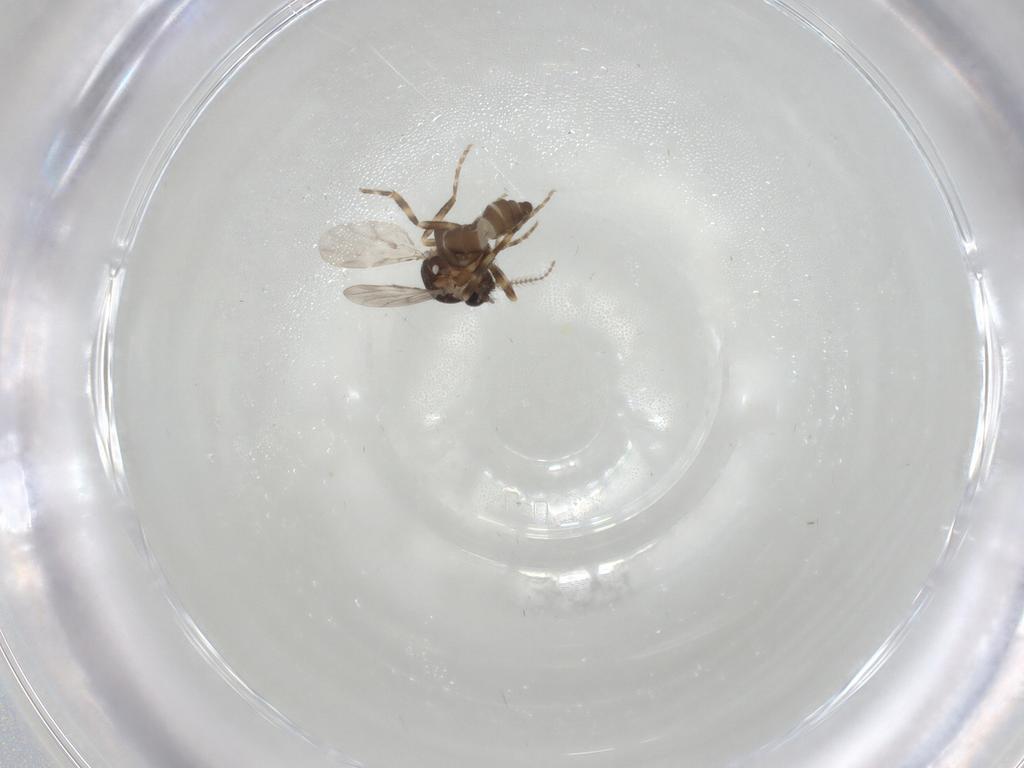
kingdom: Animalia
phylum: Arthropoda
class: Insecta
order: Diptera
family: Ceratopogonidae
